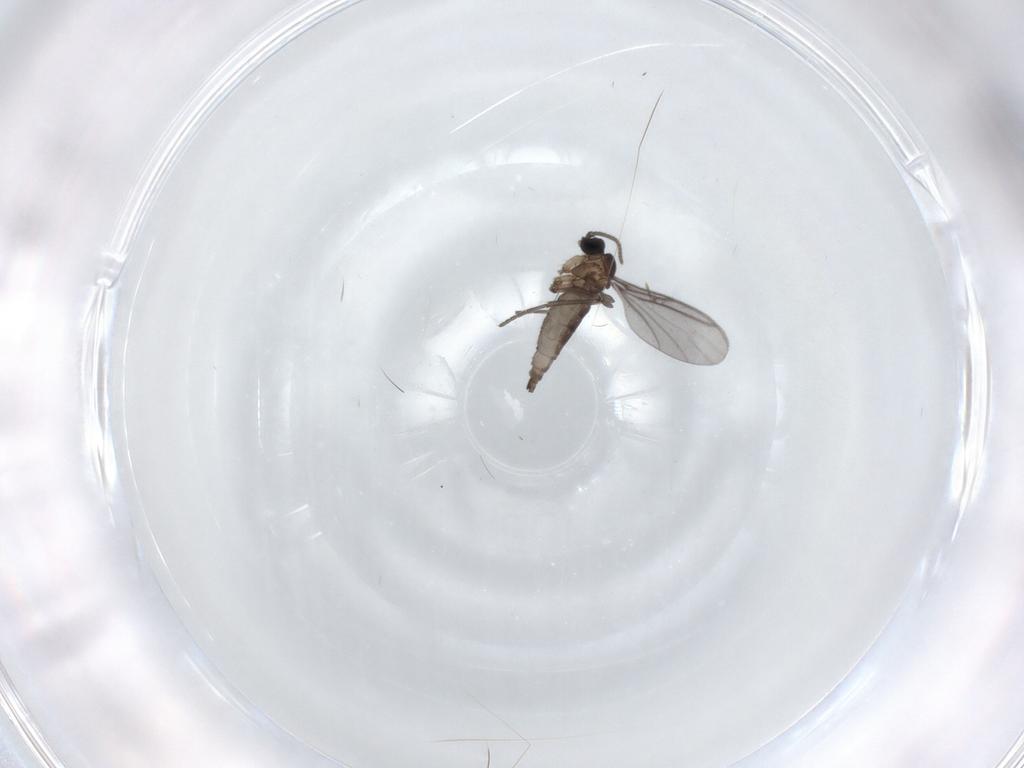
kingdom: Animalia
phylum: Arthropoda
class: Insecta
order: Diptera
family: Sciaridae
